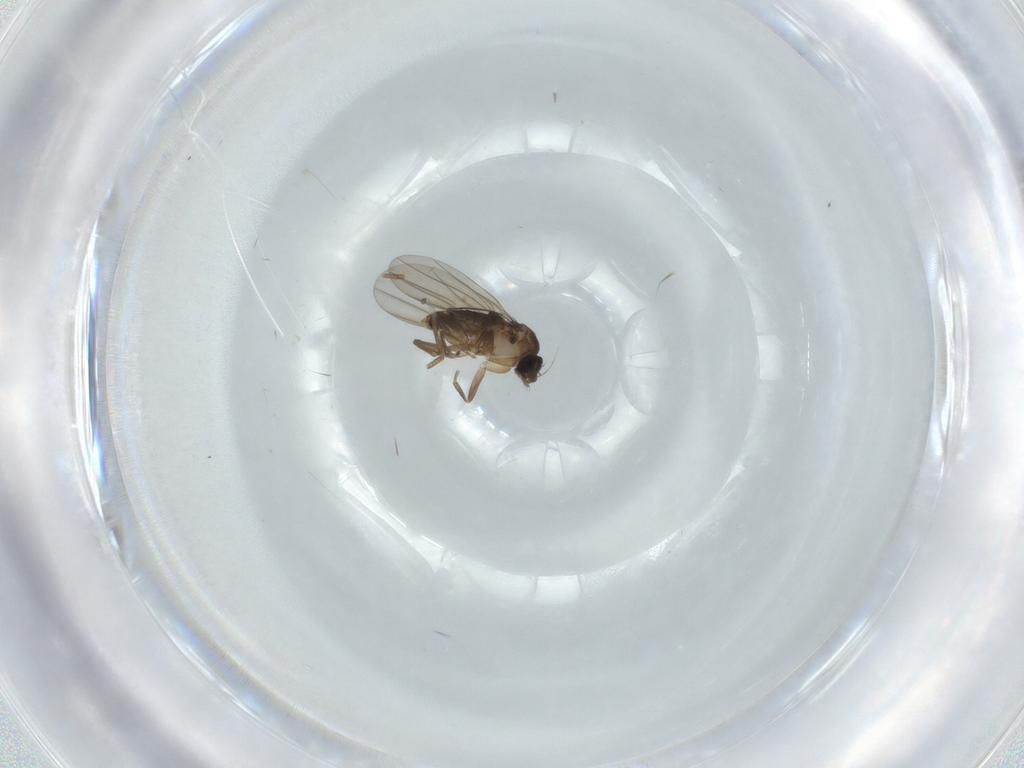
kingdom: Animalia
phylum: Arthropoda
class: Insecta
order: Diptera
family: Phoridae
